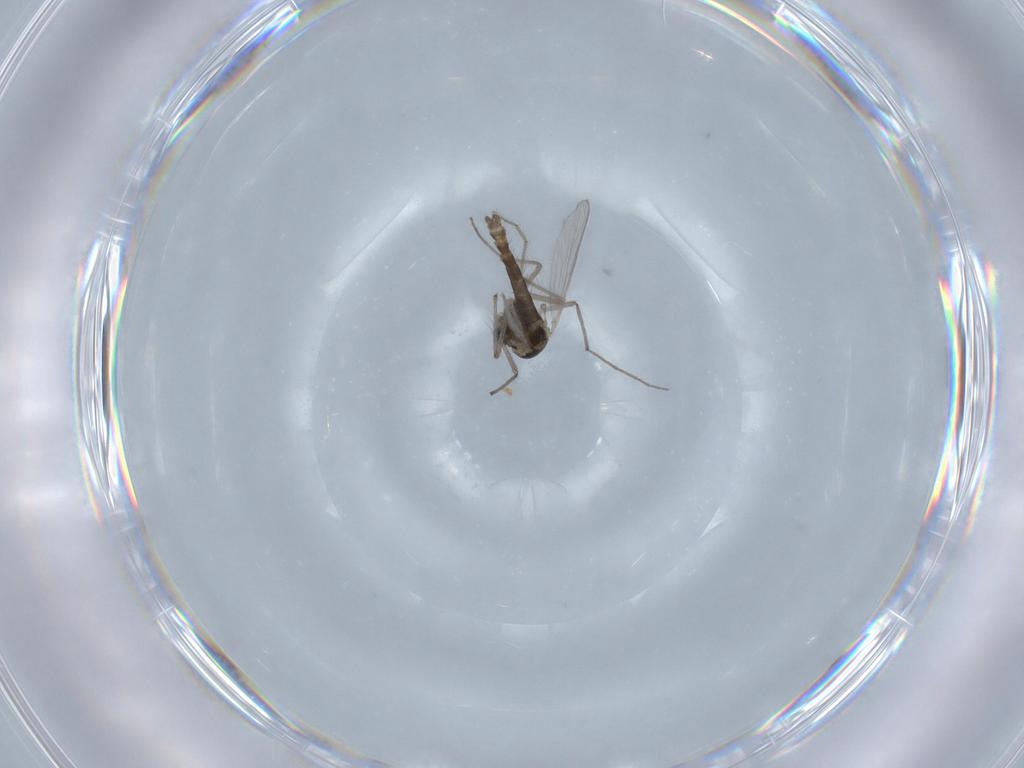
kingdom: Animalia
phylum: Arthropoda
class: Insecta
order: Diptera
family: Chironomidae
